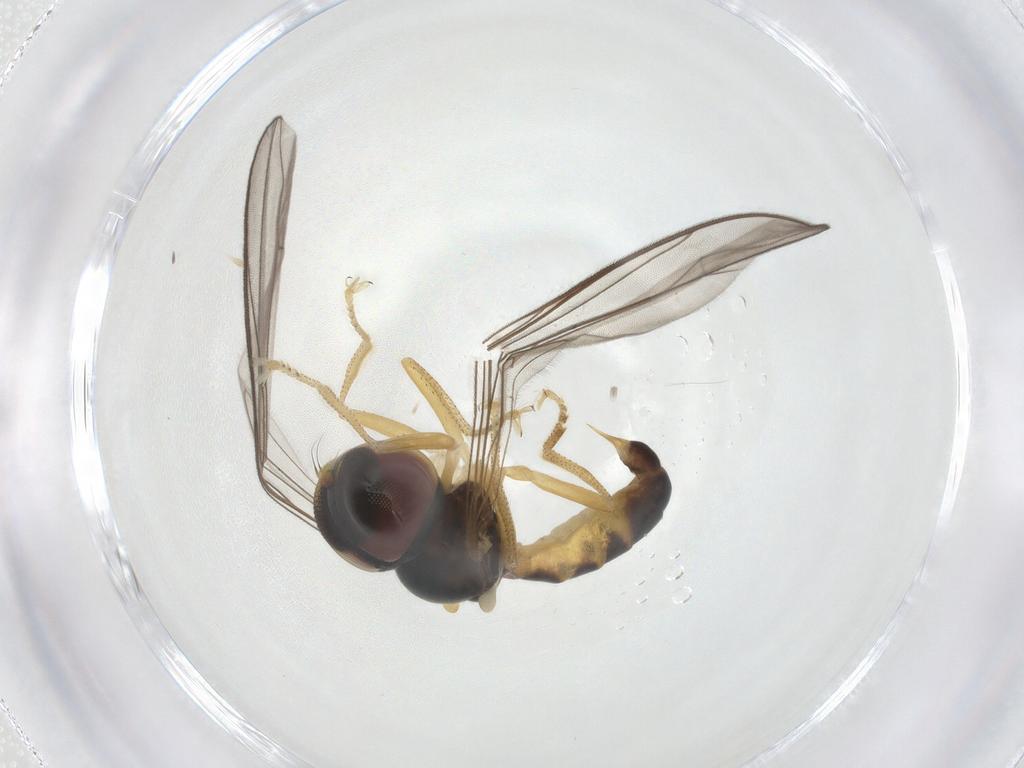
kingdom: Animalia
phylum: Arthropoda
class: Insecta
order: Diptera
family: Pipunculidae
